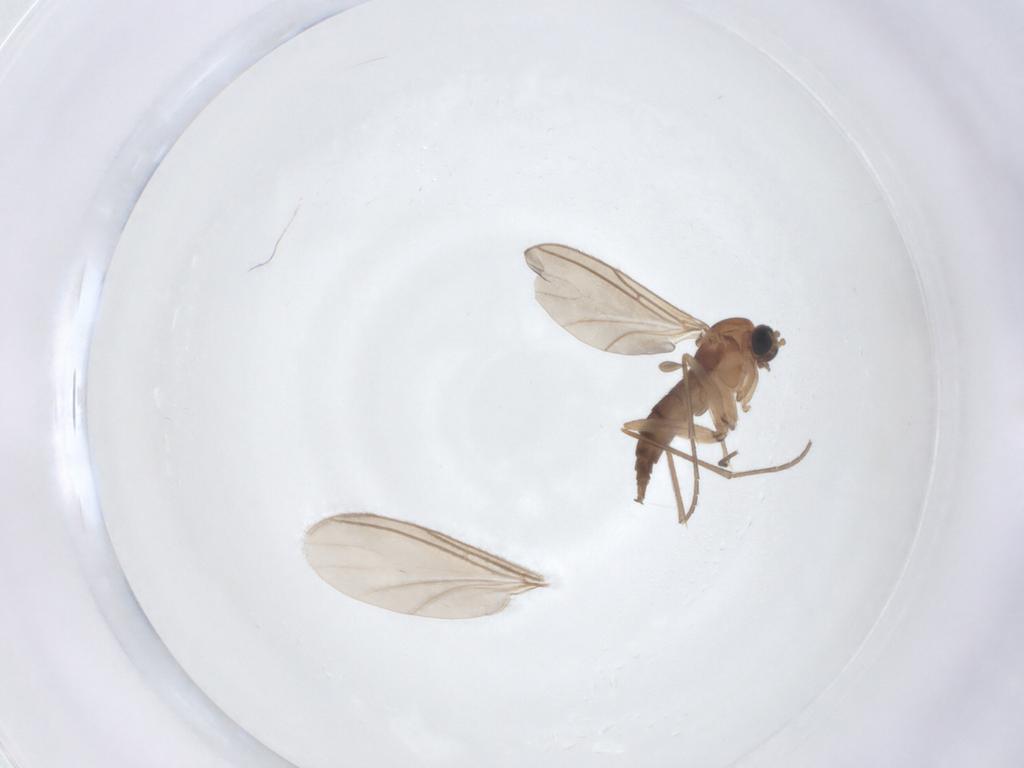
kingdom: Animalia
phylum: Arthropoda
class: Insecta
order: Diptera
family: Sciaridae
